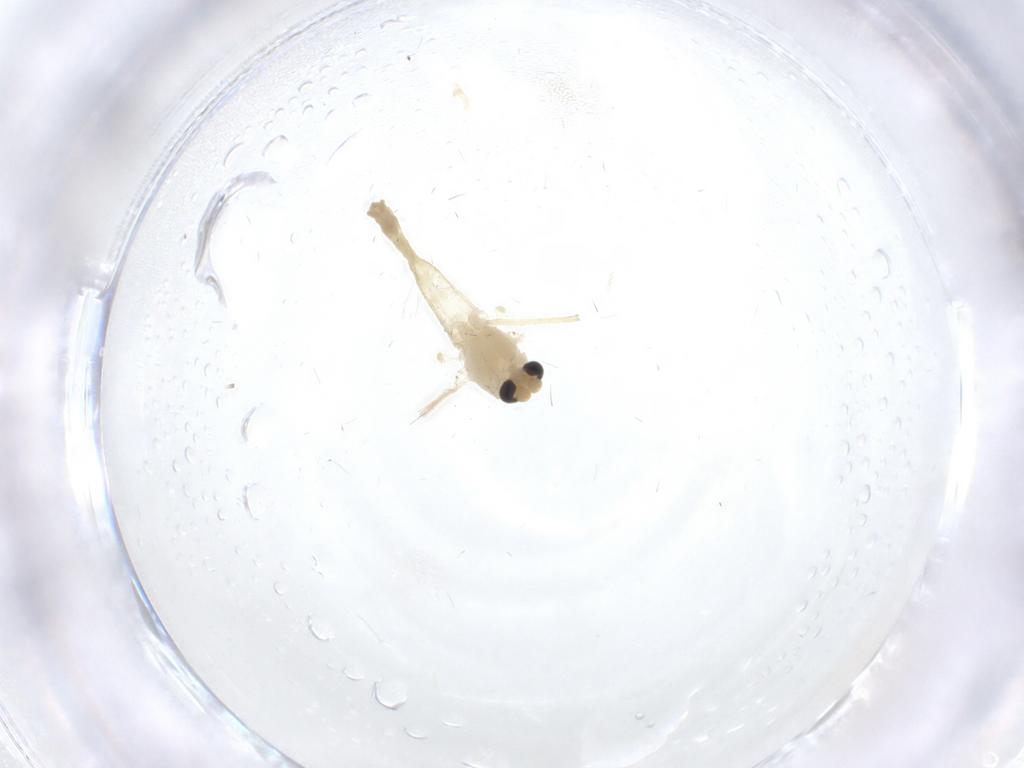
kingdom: Animalia
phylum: Arthropoda
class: Insecta
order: Diptera
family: Chironomidae
